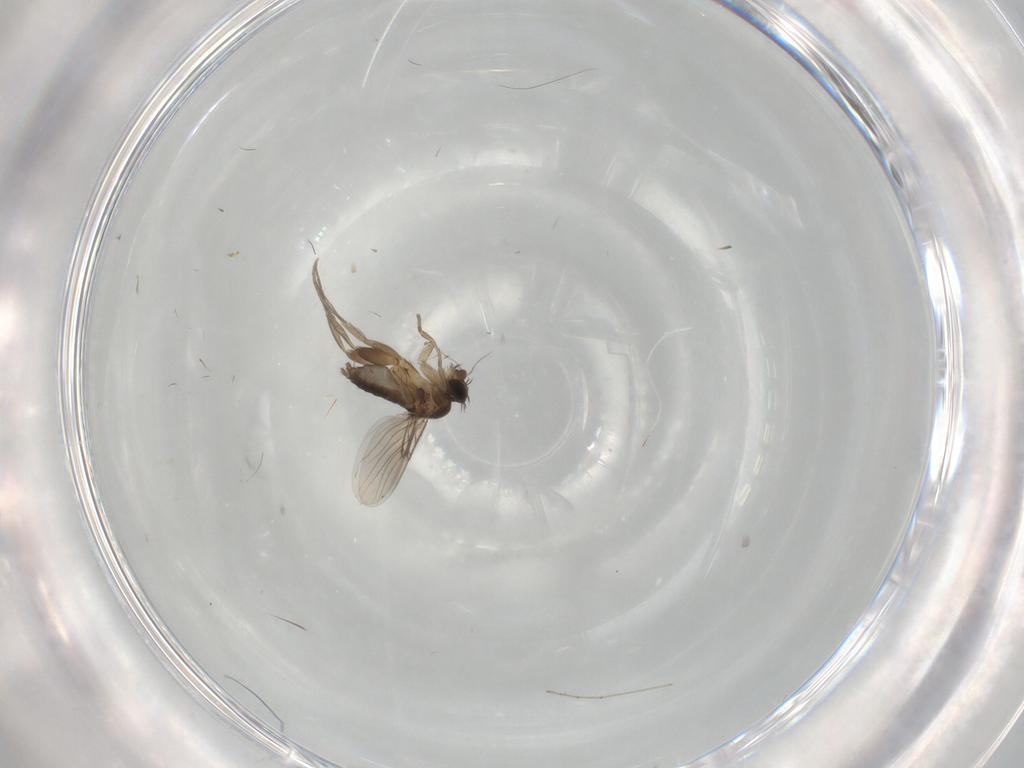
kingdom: Animalia
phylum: Arthropoda
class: Insecta
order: Diptera
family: Phoridae
